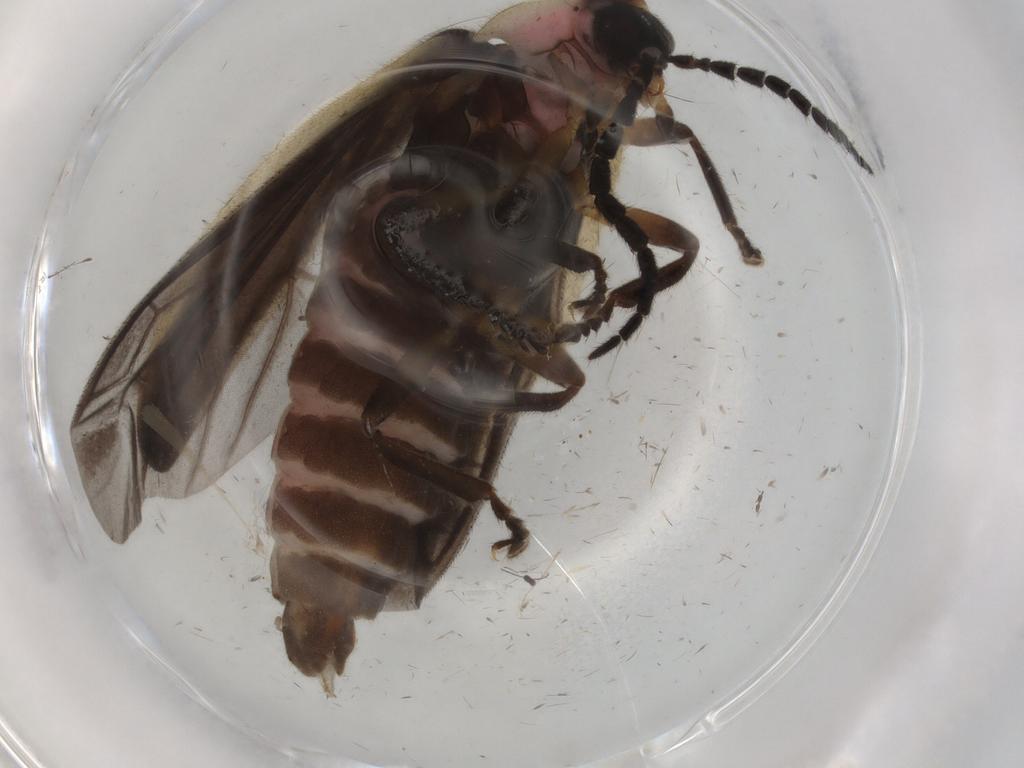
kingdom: Animalia
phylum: Arthropoda
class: Insecta
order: Coleoptera
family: Lampyridae
